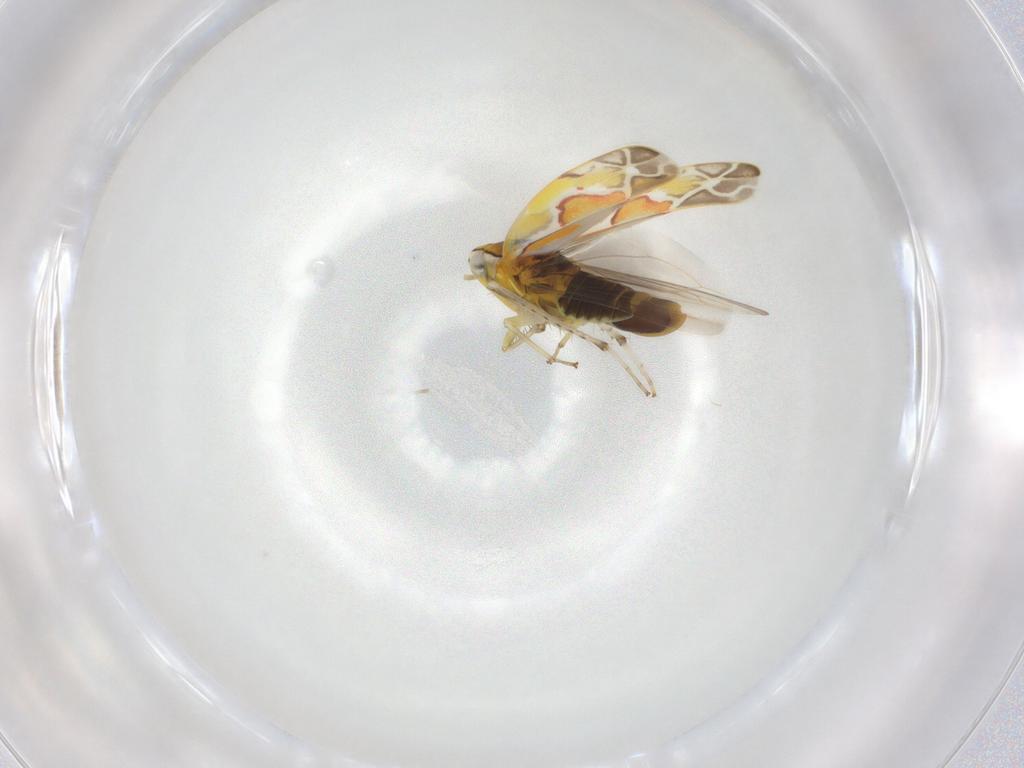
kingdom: Animalia
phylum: Arthropoda
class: Insecta
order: Hemiptera
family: Cicadellidae
